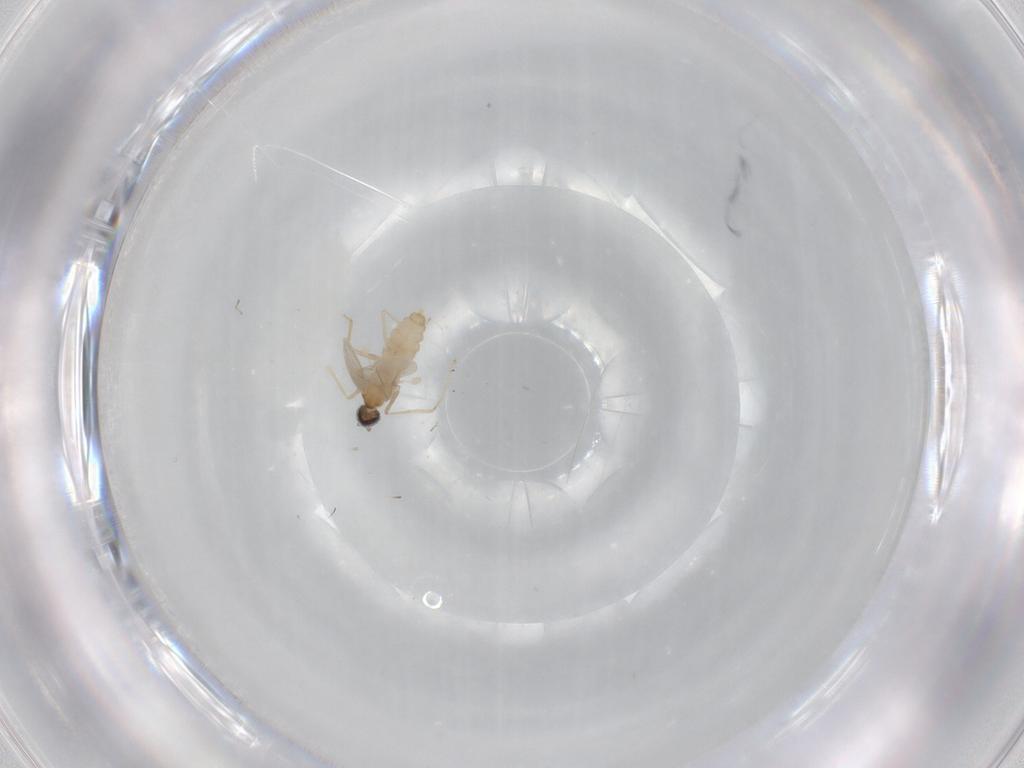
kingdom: Animalia
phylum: Arthropoda
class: Insecta
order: Diptera
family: Cecidomyiidae
